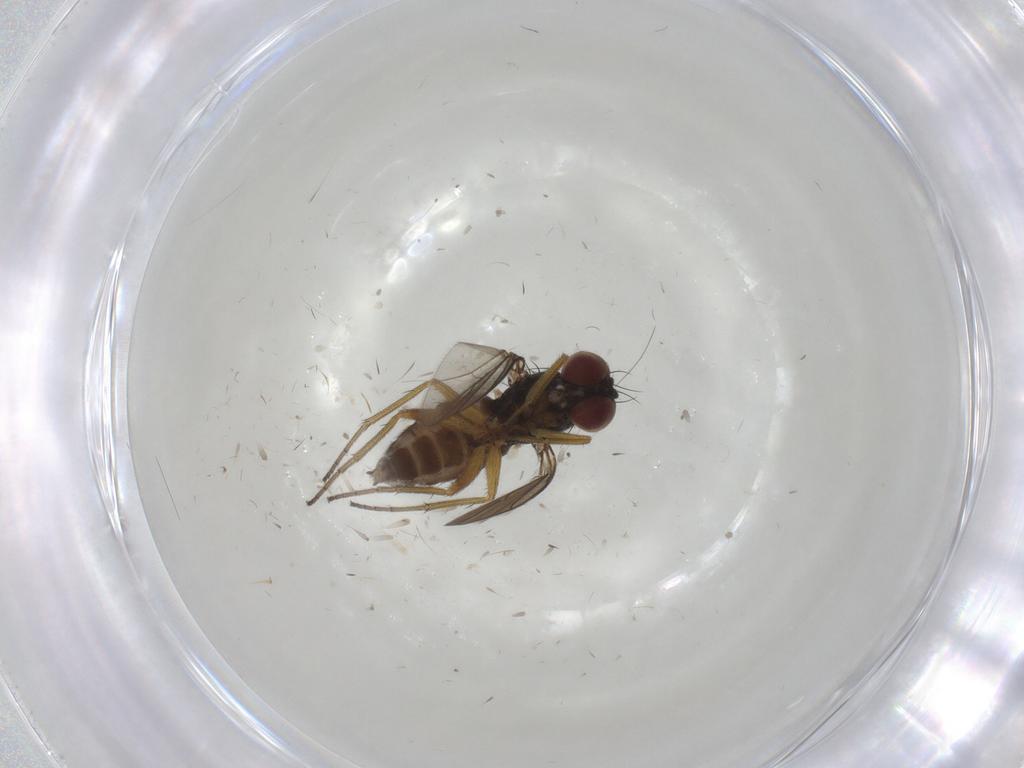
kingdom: Animalia
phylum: Arthropoda
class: Insecta
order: Diptera
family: Dolichopodidae
